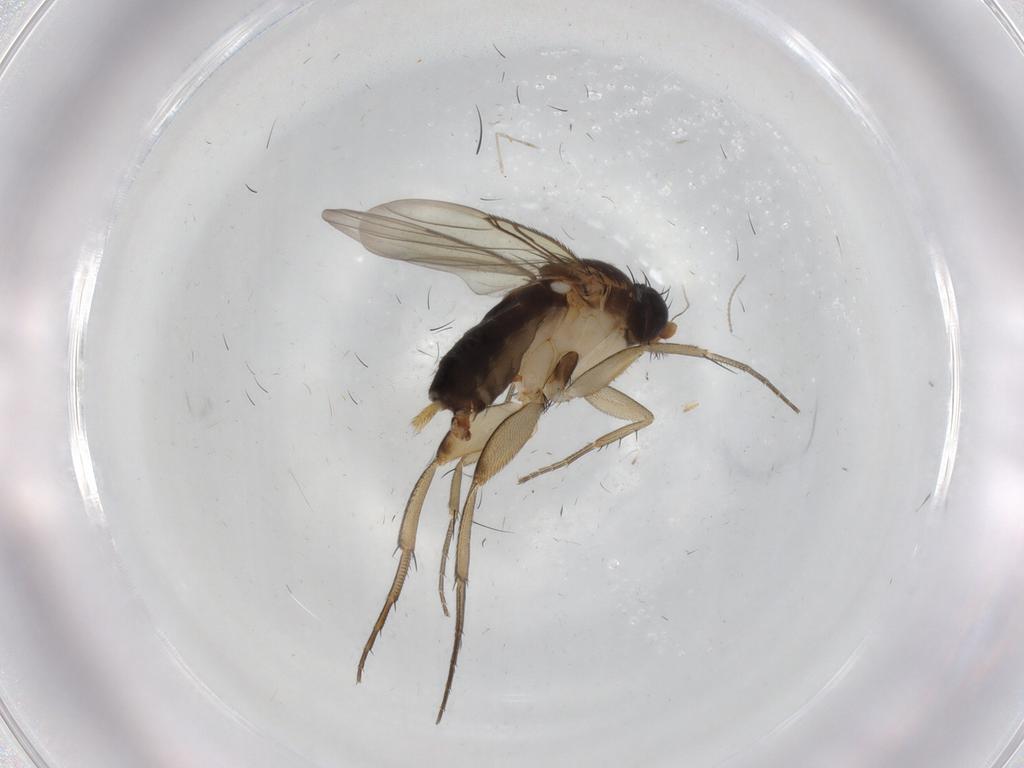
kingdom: Animalia
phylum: Arthropoda
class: Insecta
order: Diptera
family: Phoridae
